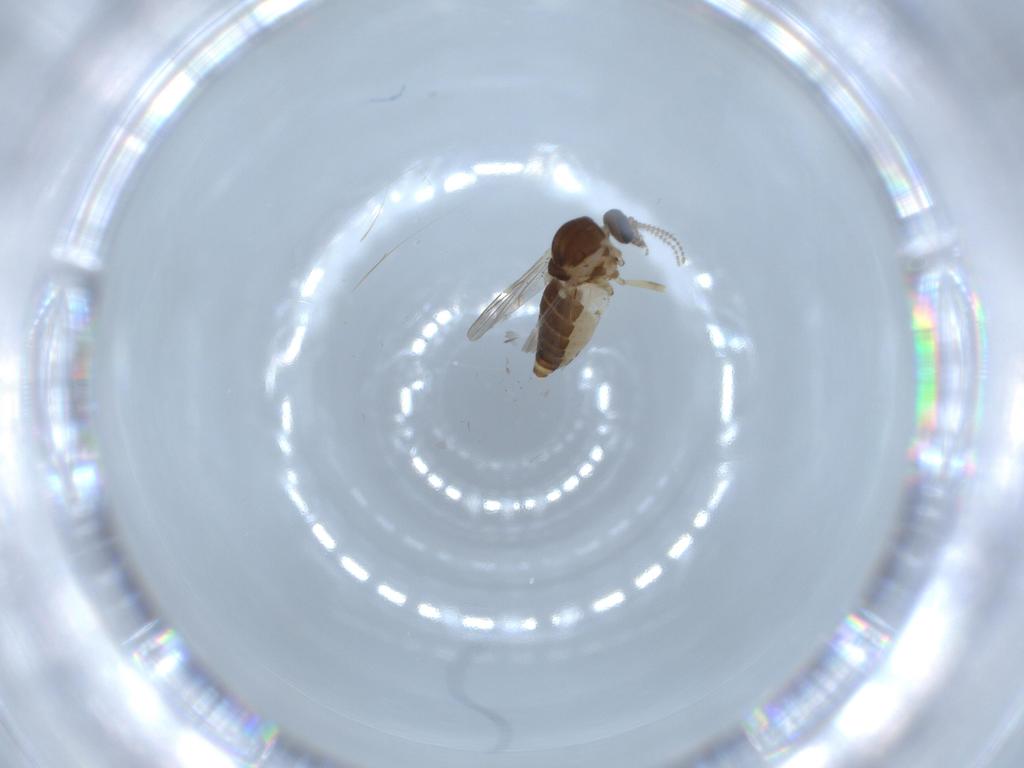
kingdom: Animalia
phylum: Arthropoda
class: Insecta
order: Diptera
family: Ceratopogonidae
